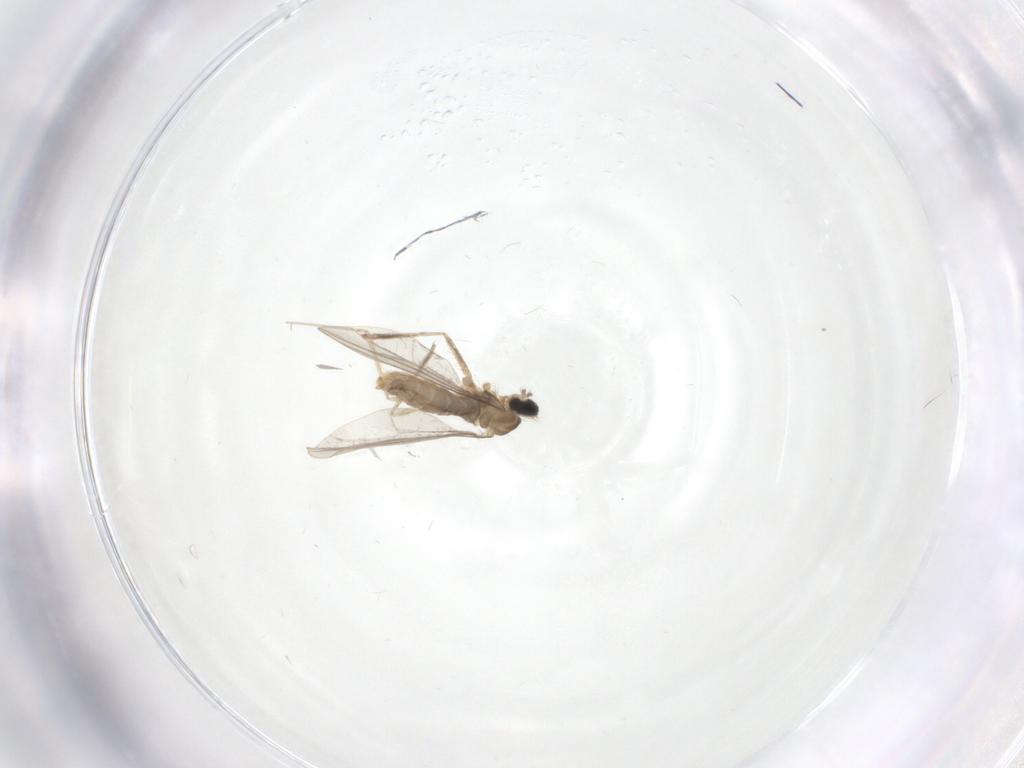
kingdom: Animalia
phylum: Arthropoda
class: Insecta
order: Diptera
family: Cecidomyiidae
